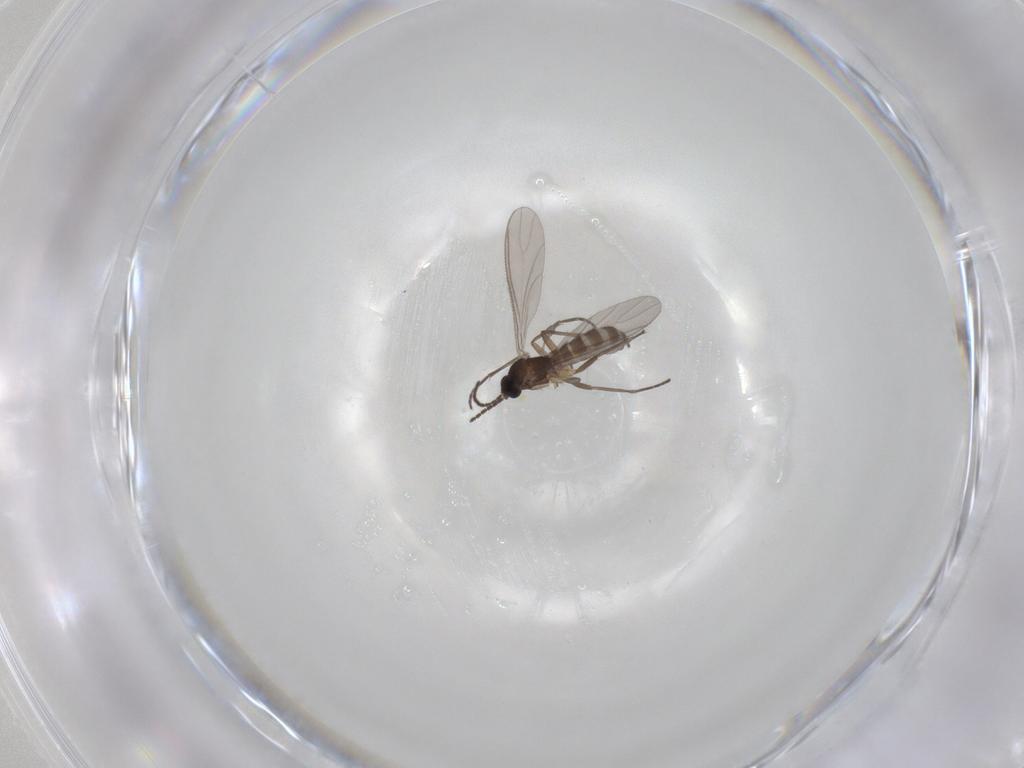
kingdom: Animalia
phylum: Arthropoda
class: Insecta
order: Diptera
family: Sciaridae
